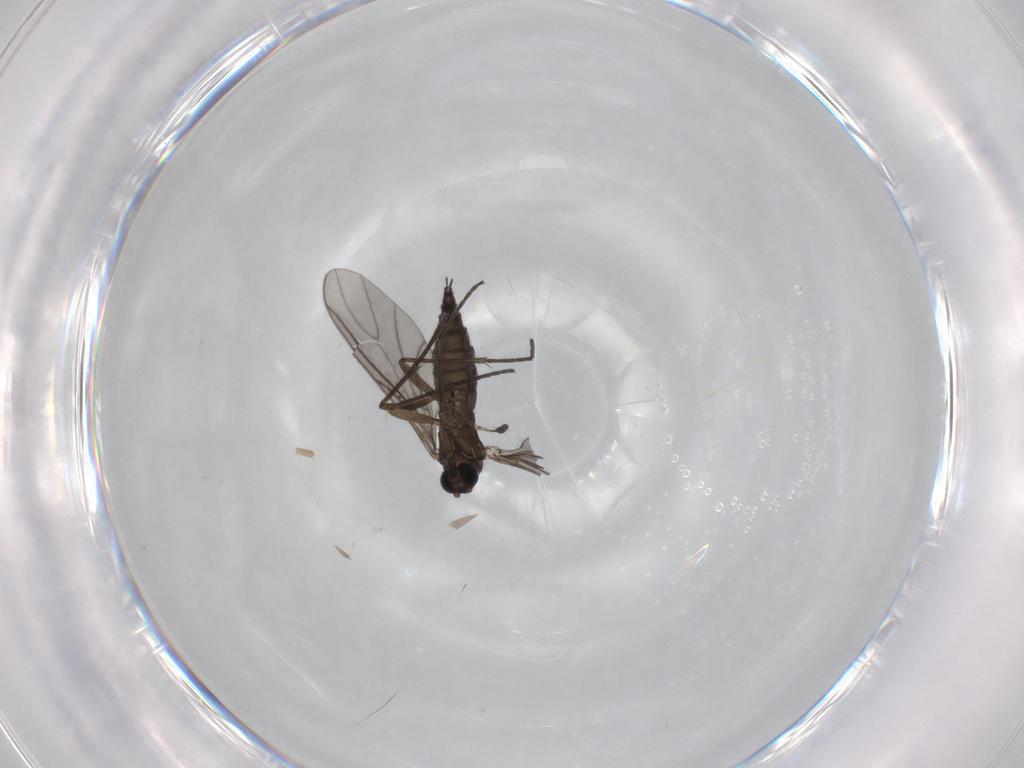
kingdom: Animalia
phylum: Arthropoda
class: Insecta
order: Diptera
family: Sciaridae
